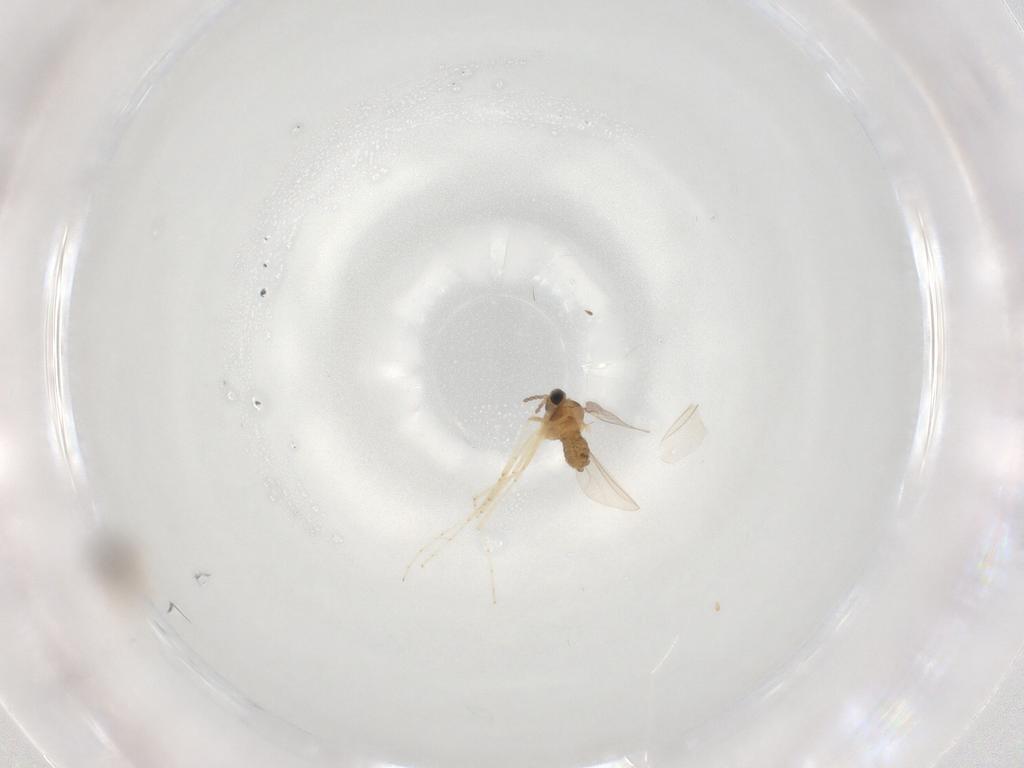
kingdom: Animalia
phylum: Arthropoda
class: Insecta
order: Diptera
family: Cecidomyiidae
